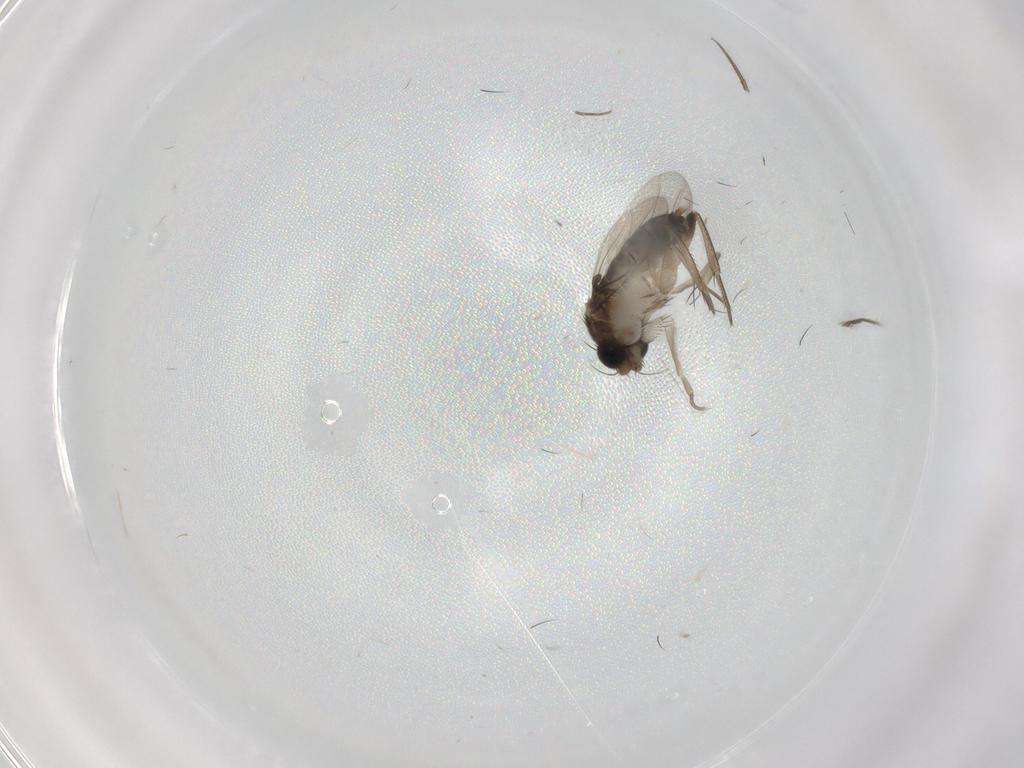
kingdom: Animalia
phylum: Arthropoda
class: Insecta
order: Diptera
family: Phoridae
